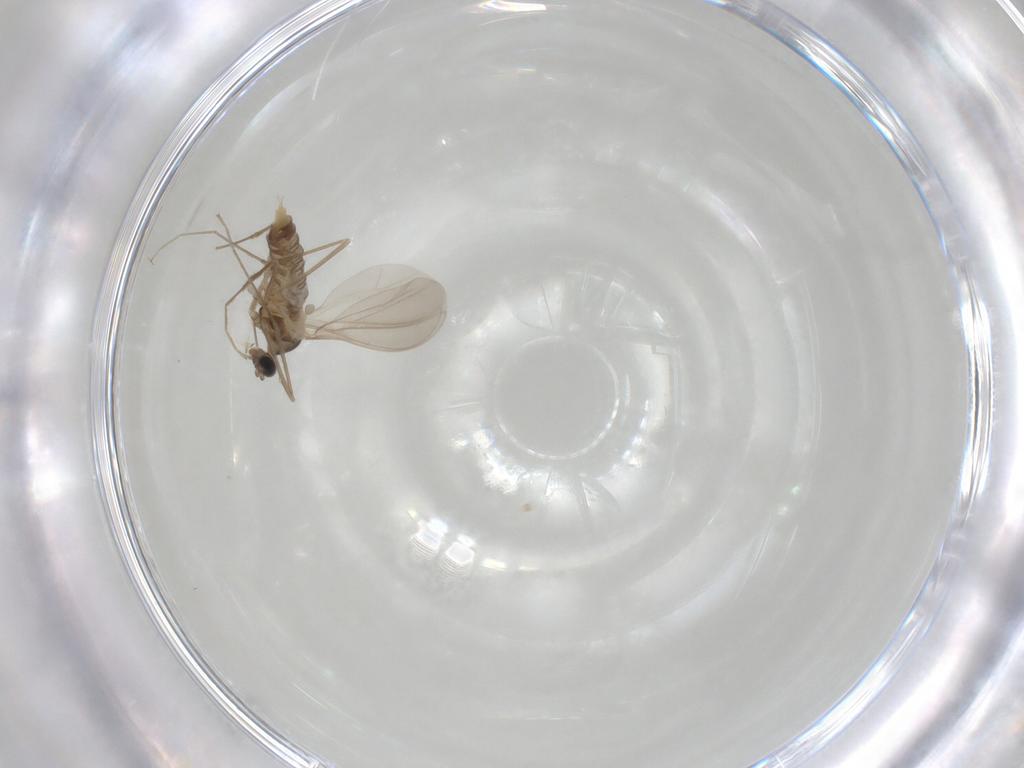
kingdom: Animalia
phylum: Arthropoda
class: Insecta
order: Diptera
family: Cecidomyiidae
